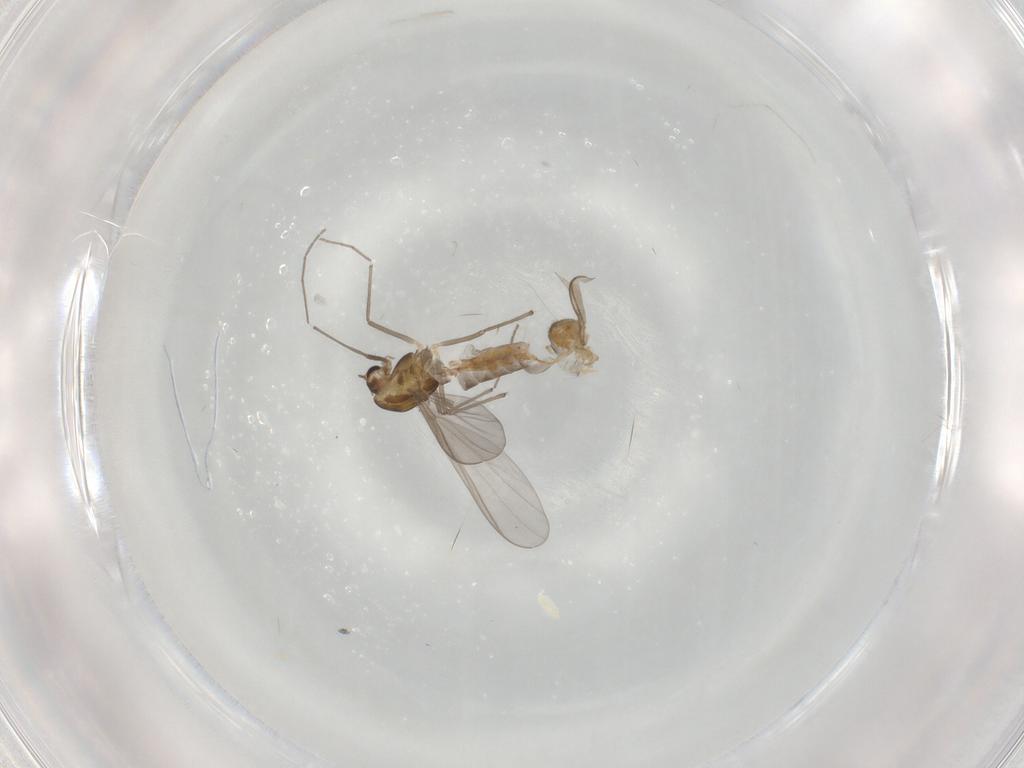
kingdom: Animalia
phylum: Arthropoda
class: Insecta
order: Diptera
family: Chironomidae
